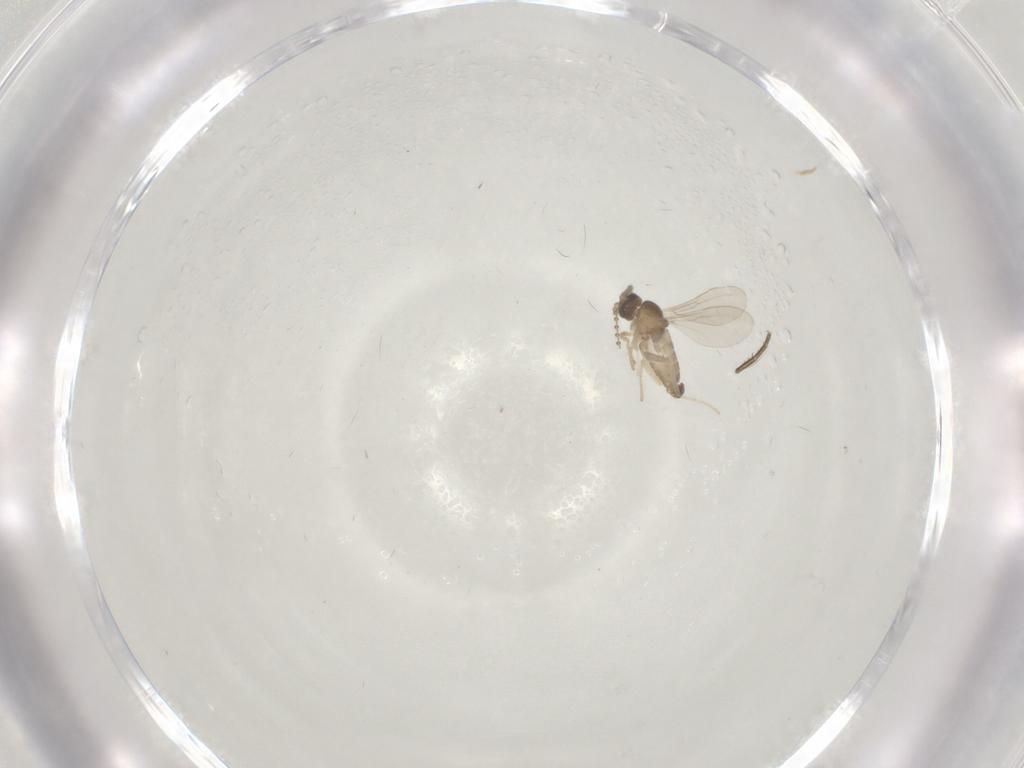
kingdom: Animalia
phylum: Arthropoda
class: Insecta
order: Diptera
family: Phoridae
